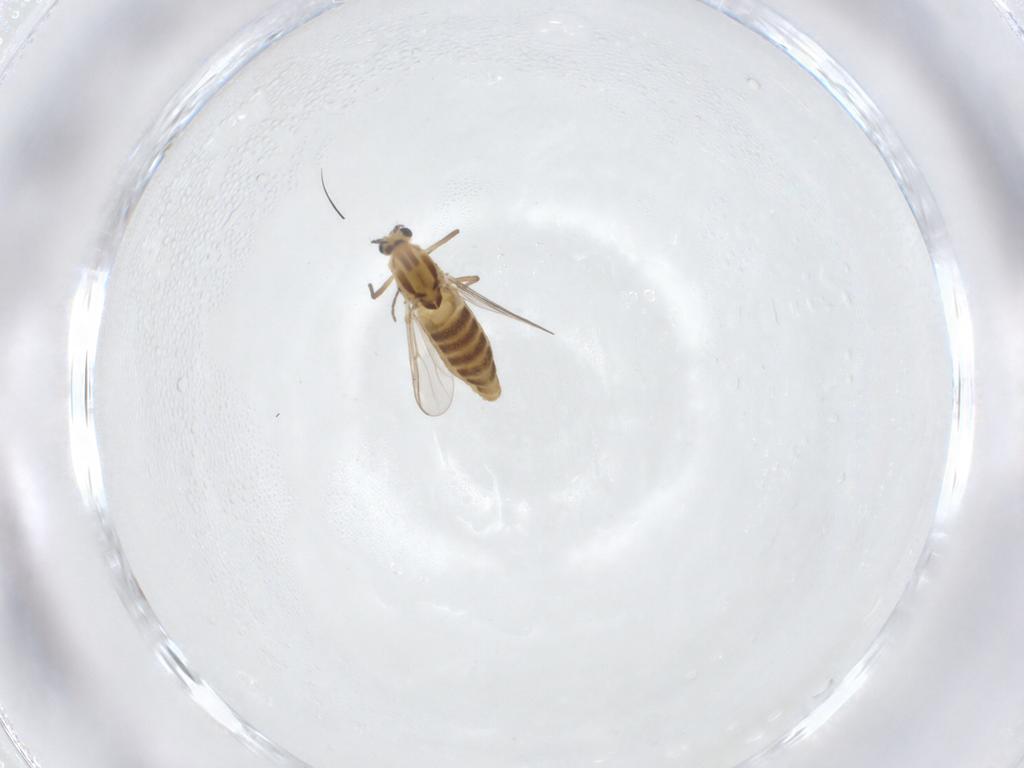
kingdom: Animalia
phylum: Arthropoda
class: Insecta
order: Diptera
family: Chironomidae
